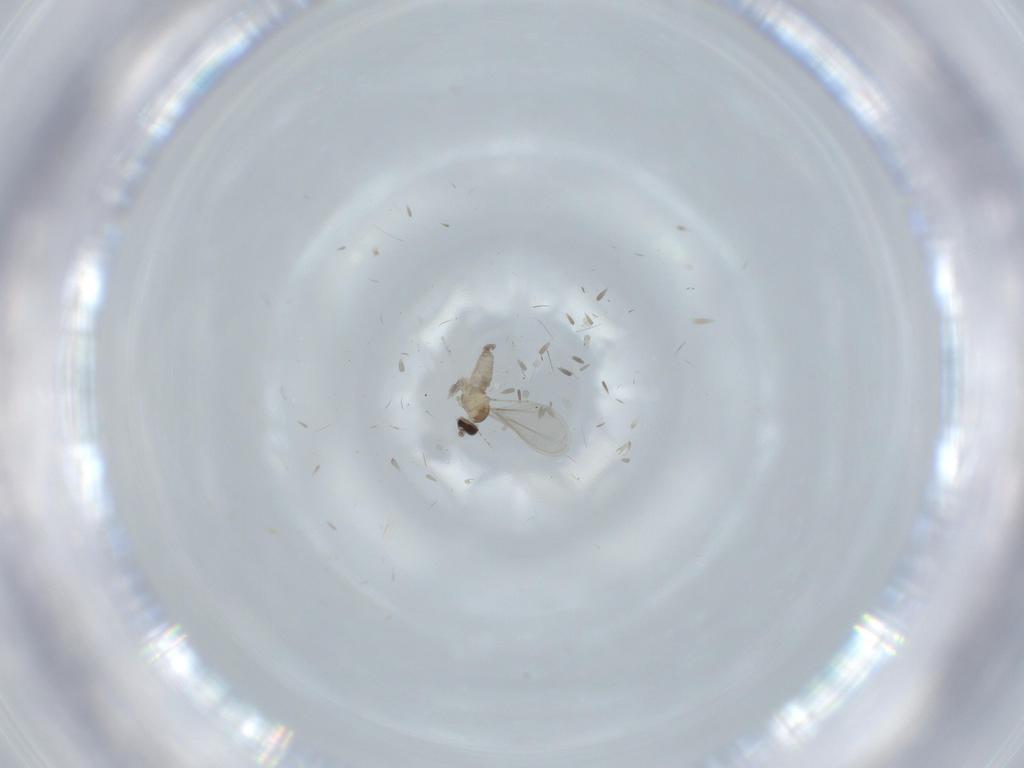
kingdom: Animalia
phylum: Arthropoda
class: Insecta
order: Diptera
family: Cecidomyiidae
